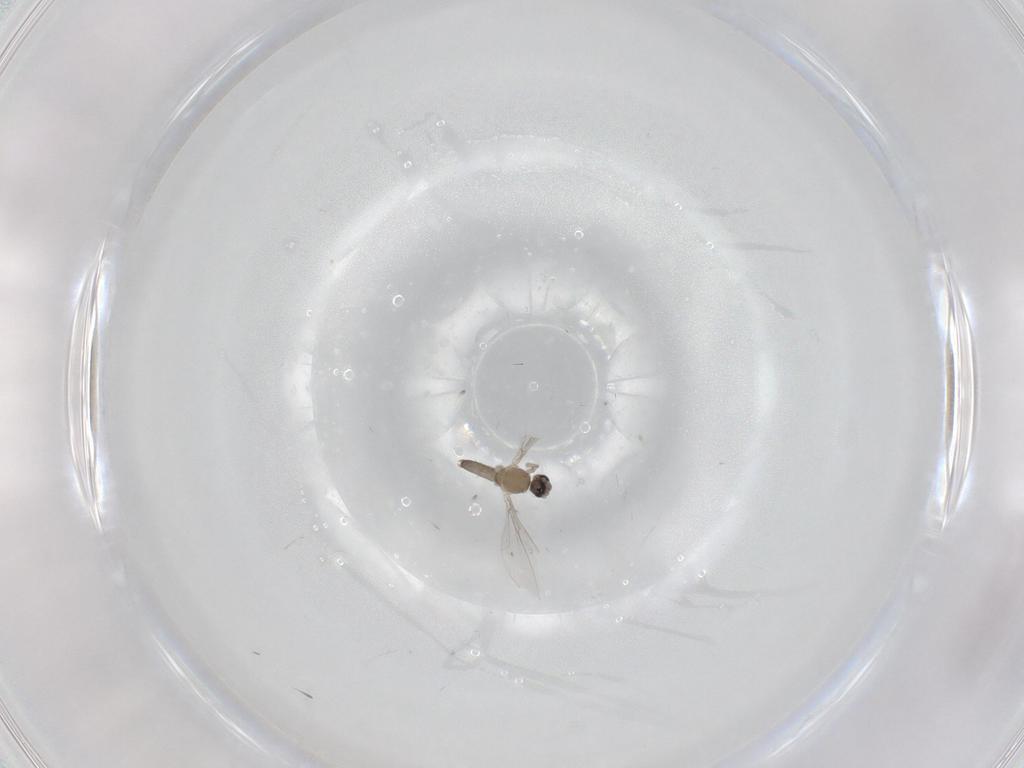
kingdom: Animalia
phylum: Arthropoda
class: Insecta
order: Diptera
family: Cecidomyiidae
